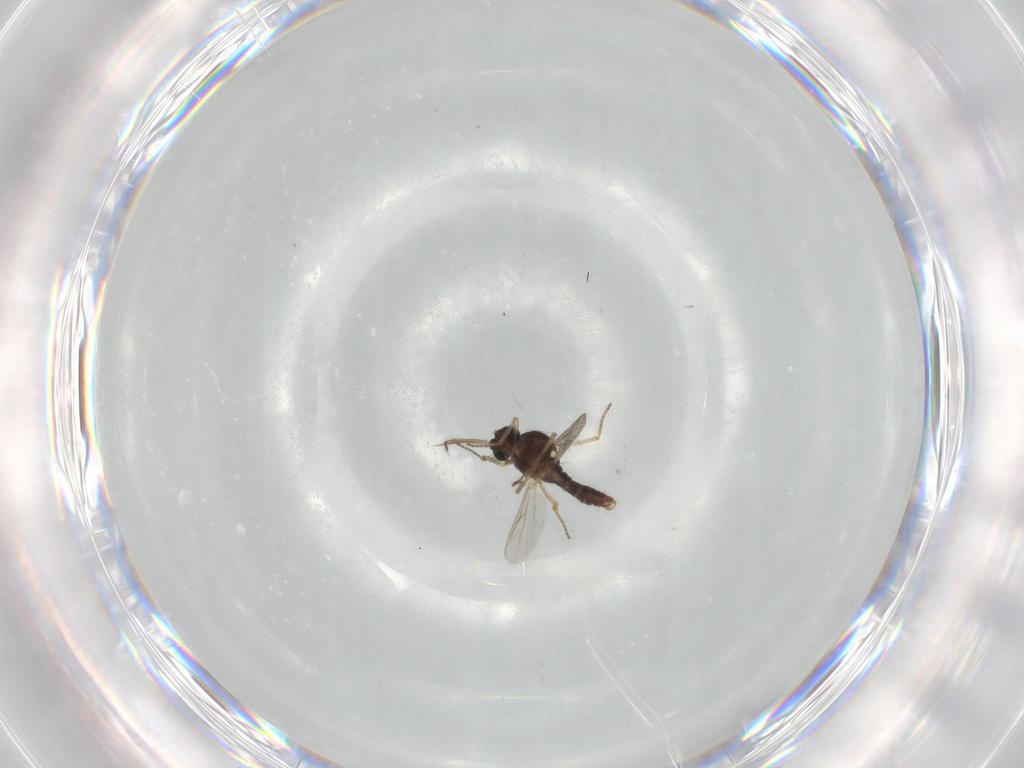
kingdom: Animalia
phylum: Arthropoda
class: Insecta
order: Diptera
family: Ceratopogonidae
